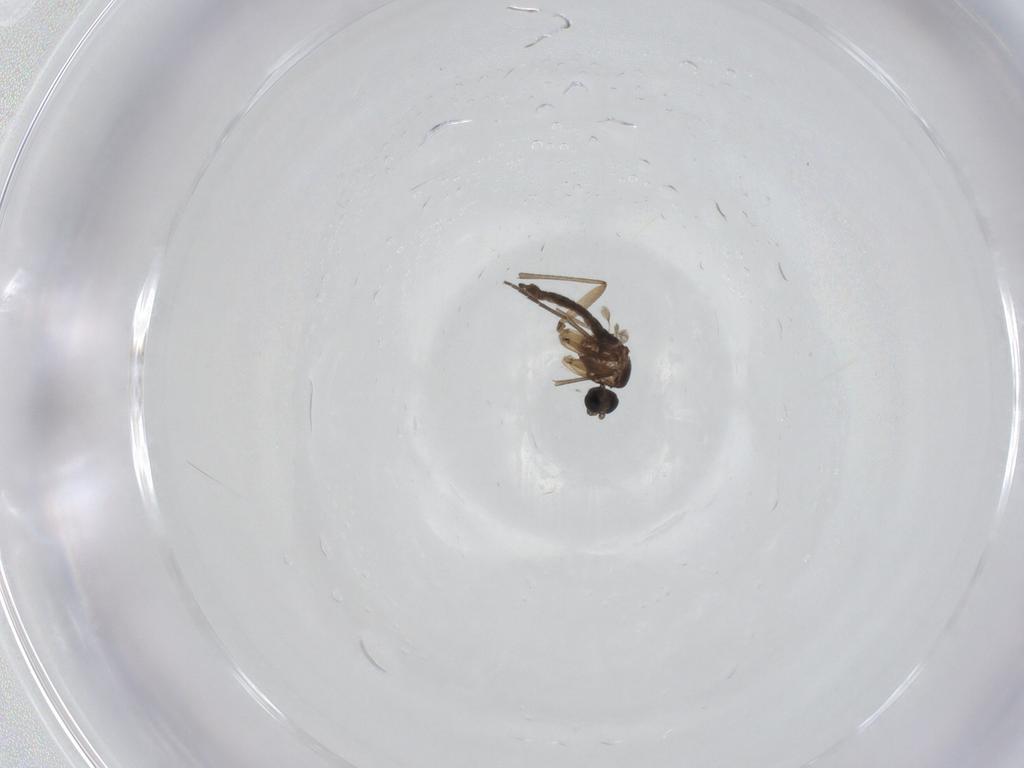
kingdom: Animalia
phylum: Arthropoda
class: Insecta
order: Diptera
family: Sciaridae
